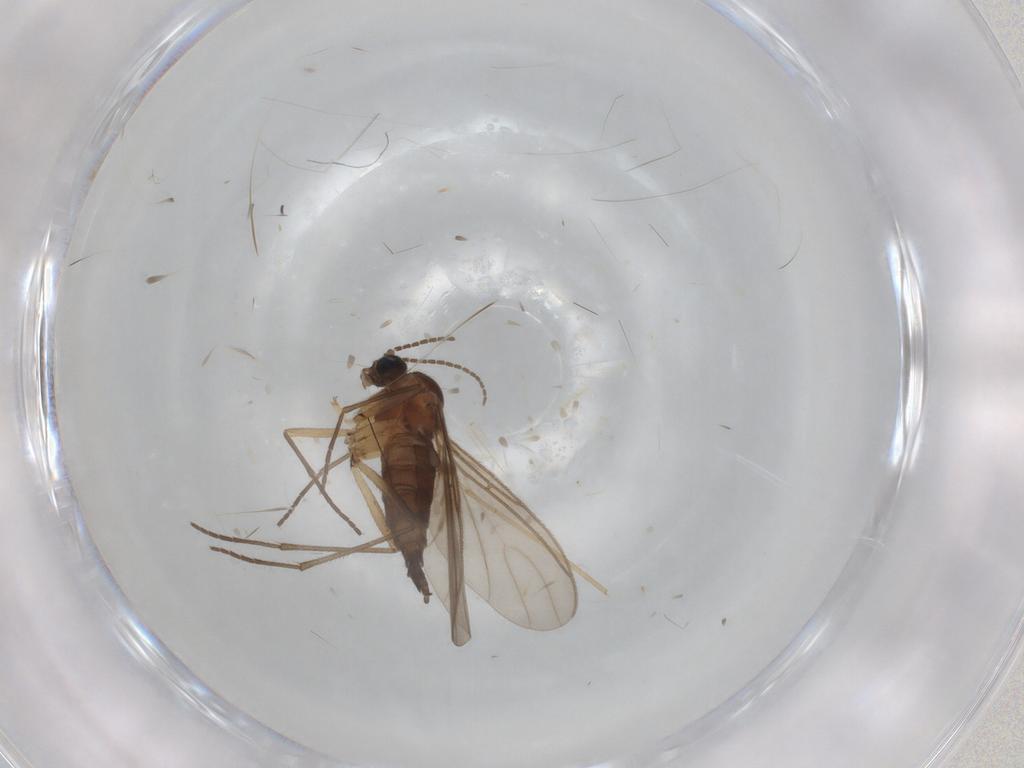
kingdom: Animalia
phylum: Arthropoda
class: Insecta
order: Diptera
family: Sciaridae
